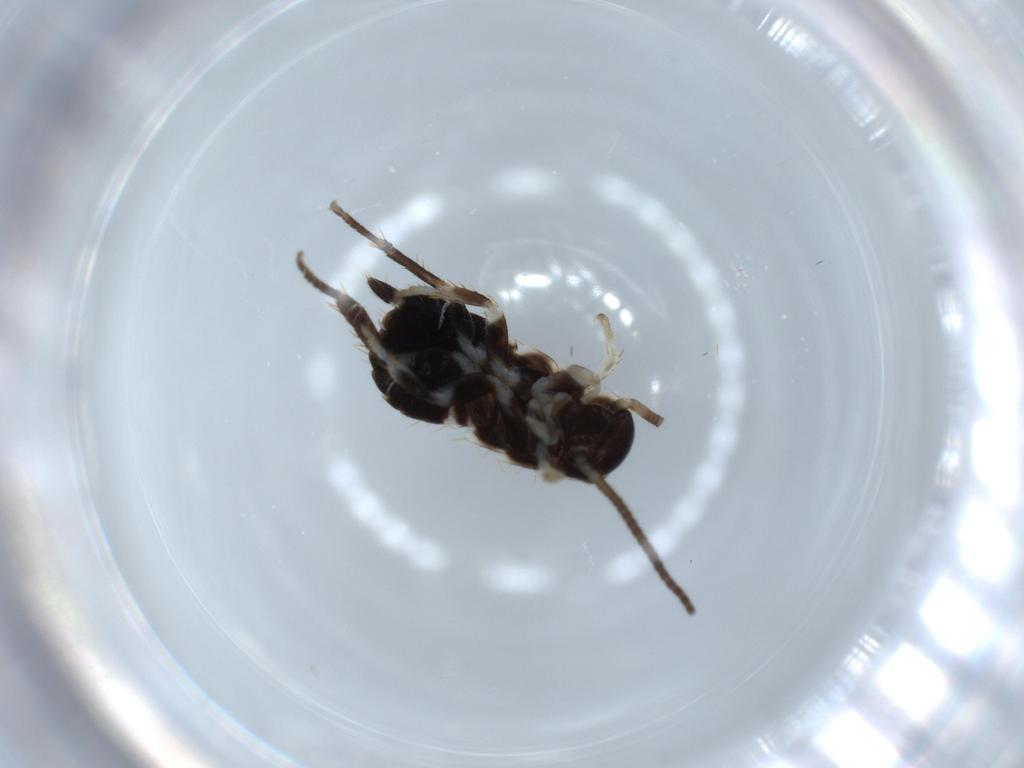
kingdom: Animalia
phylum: Arthropoda
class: Insecta
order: Blattodea
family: Ectobiidae
